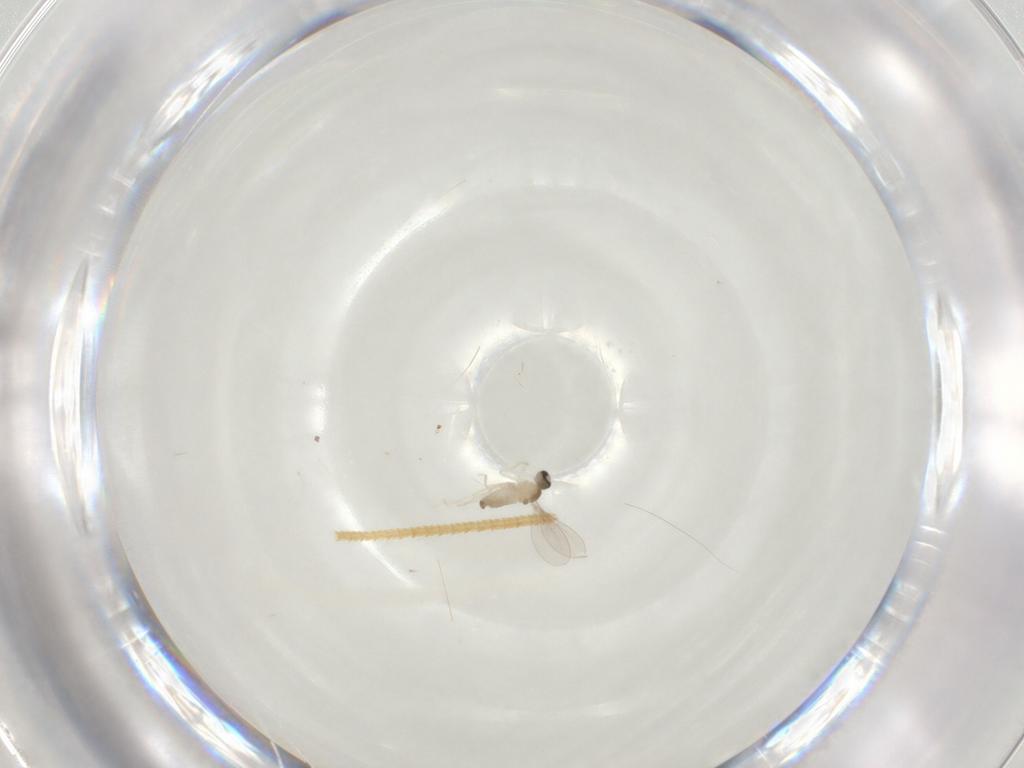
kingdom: Animalia
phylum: Arthropoda
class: Insecta
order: Diptera
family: Cecidomyiidae
